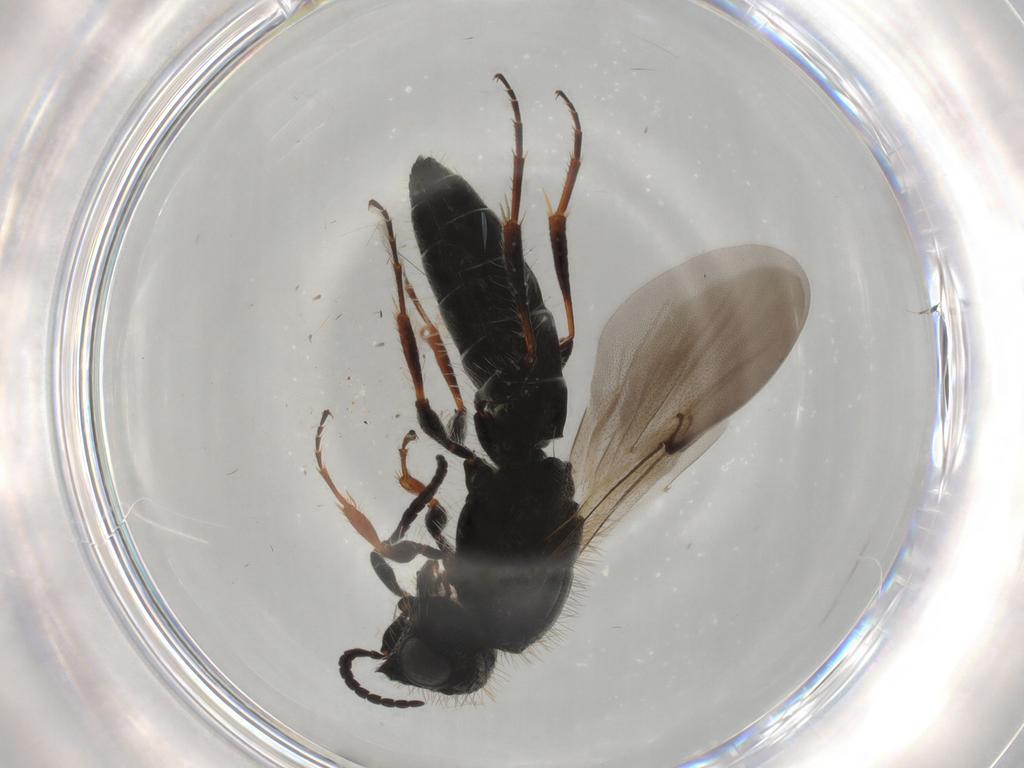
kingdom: Animalia
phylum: Arthropoda
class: Insecta
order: Hymenoptera
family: Scelionidae
